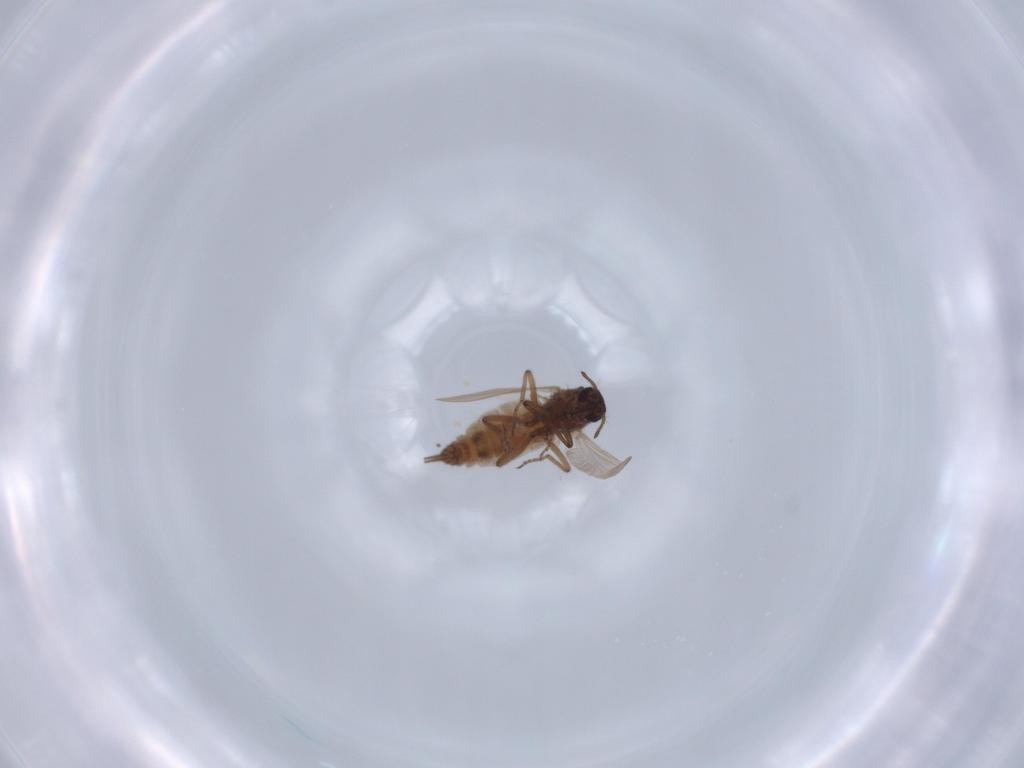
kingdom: Animalia
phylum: Arthropoda
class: Insecta
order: Diptera
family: Ceratopogonidae
